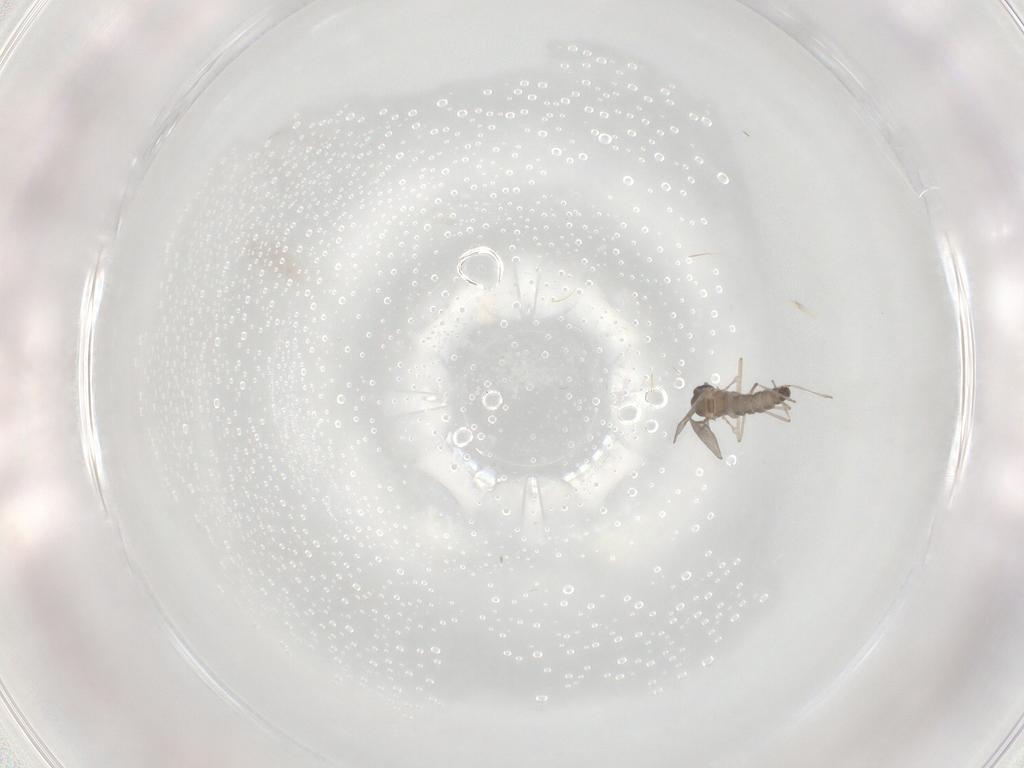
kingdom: Animalia
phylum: Arthropoda
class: Insecta
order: Diptera
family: Cecidomyiidae
